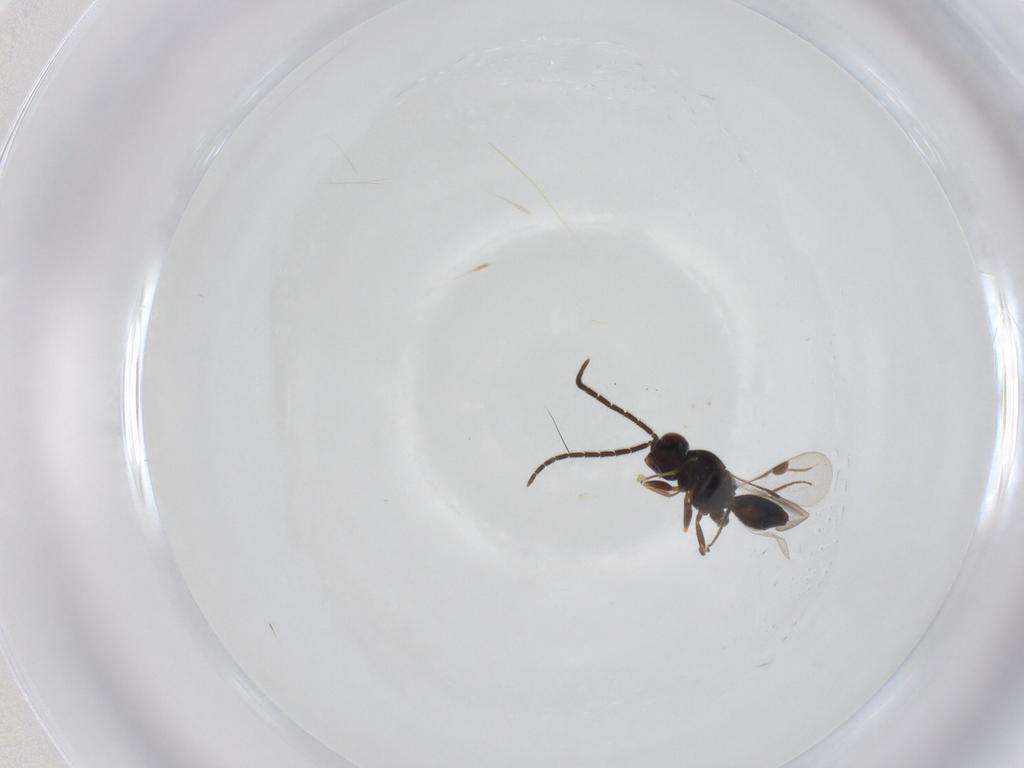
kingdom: Animalia
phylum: Arthropoda
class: Insecta
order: Hymenoptera
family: Megaspilidae
